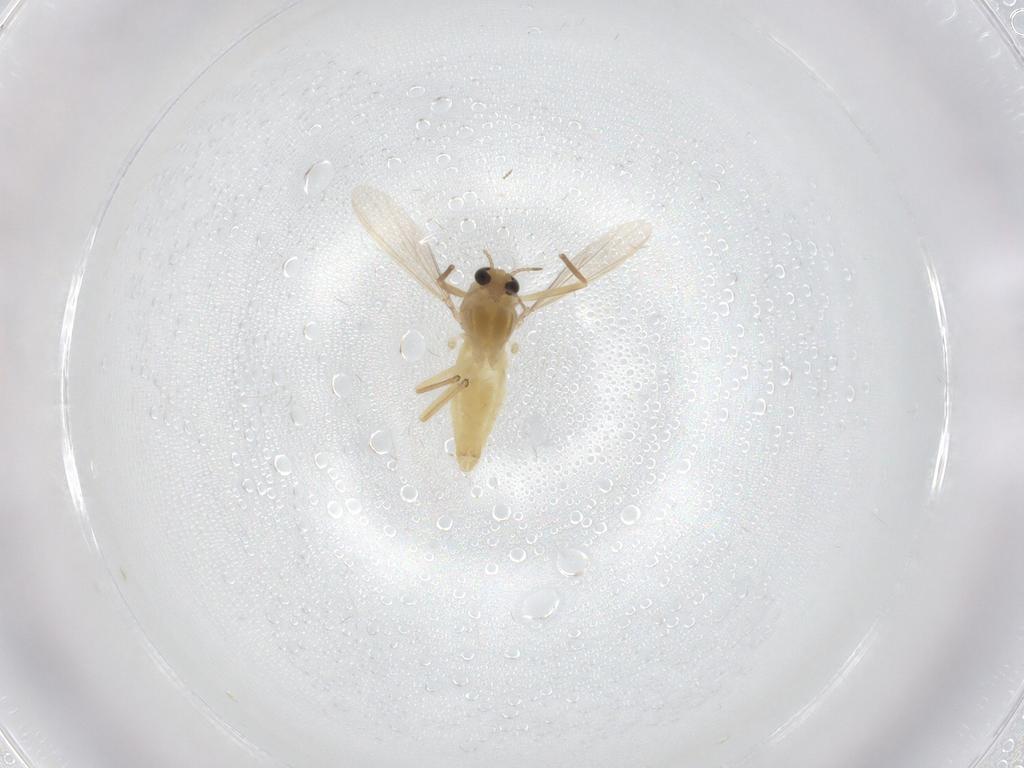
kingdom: Animalia
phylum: Arthropoda
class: Insecta
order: Diptera
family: Chironomidae
